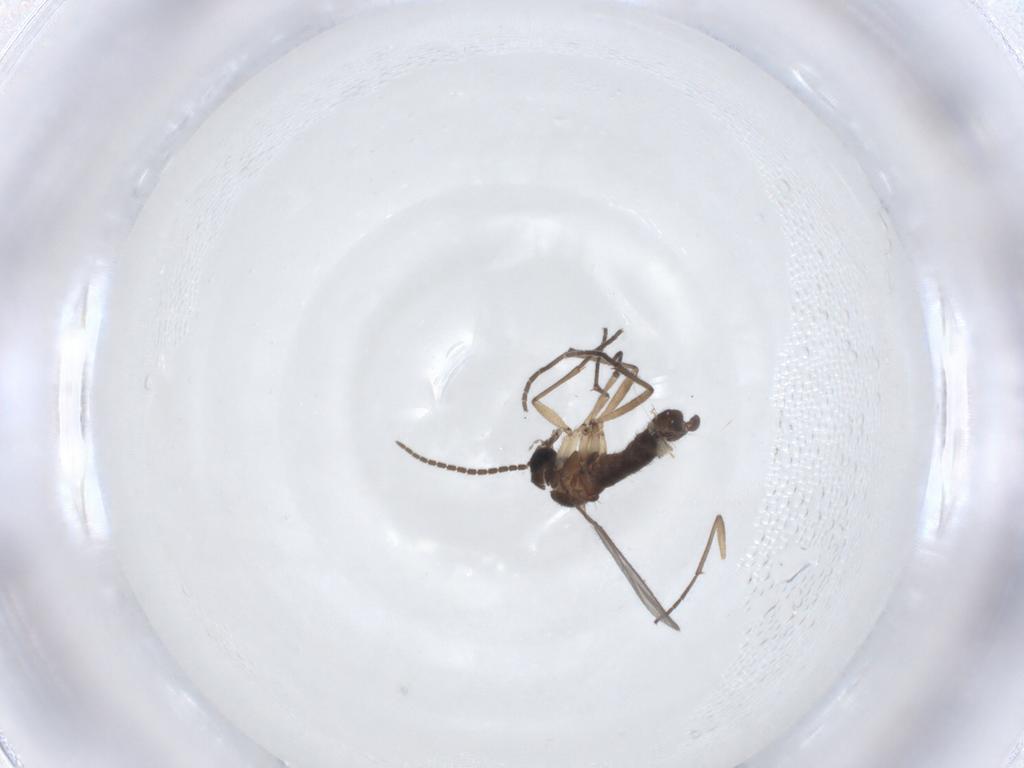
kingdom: Animalia
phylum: Arthropoda
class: Insecta
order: Diptera
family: Sciaridae
